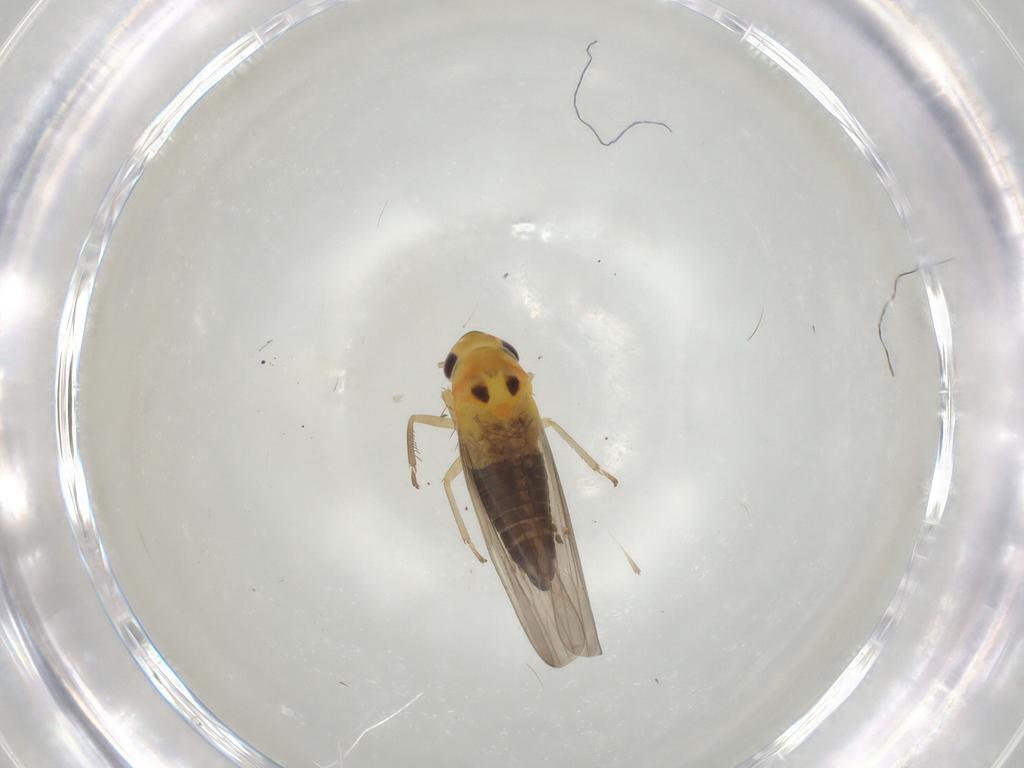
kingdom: Animalia
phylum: Arthropoda
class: Insecta
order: Hemiptera
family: Cicadellidae
